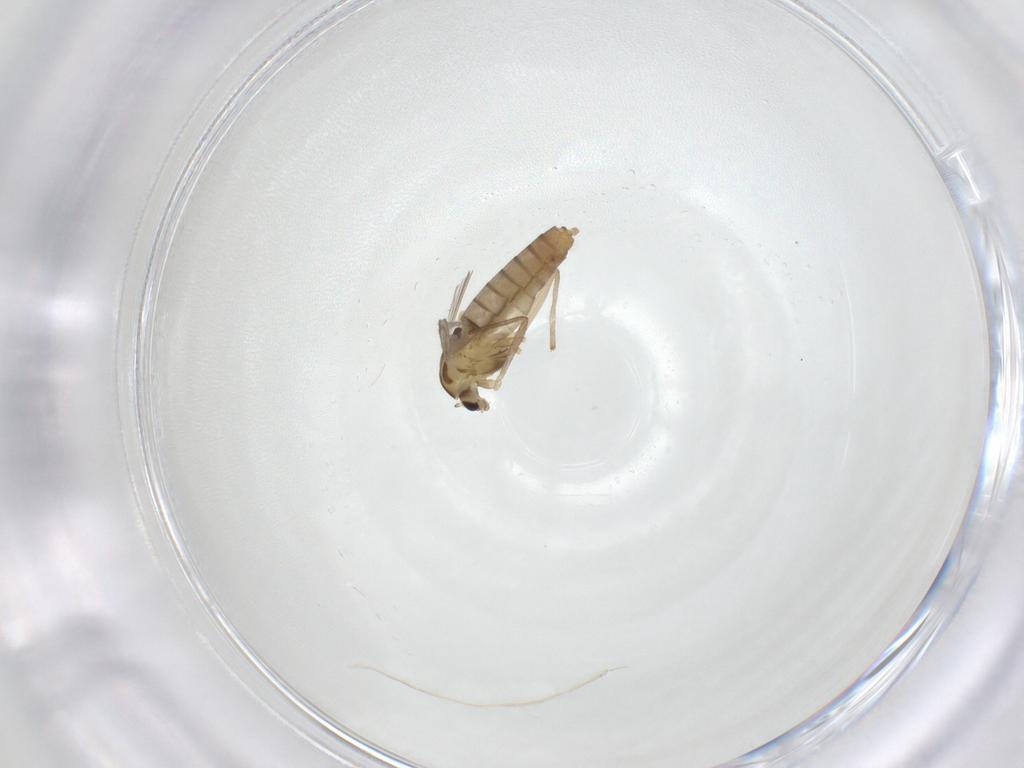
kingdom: Animalia
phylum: Arthropoda
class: Insecta
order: Diptera
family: Chironomidae
